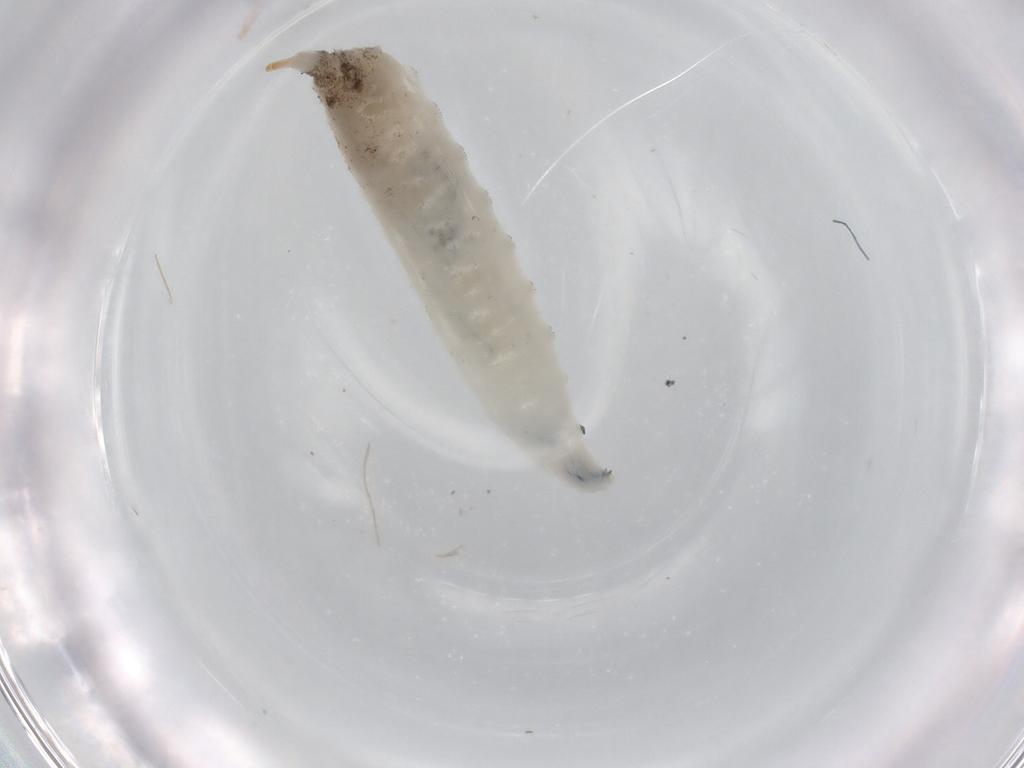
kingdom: Animalia
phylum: Arthropoda
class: Insecta
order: Diptera
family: Drosophilidae
